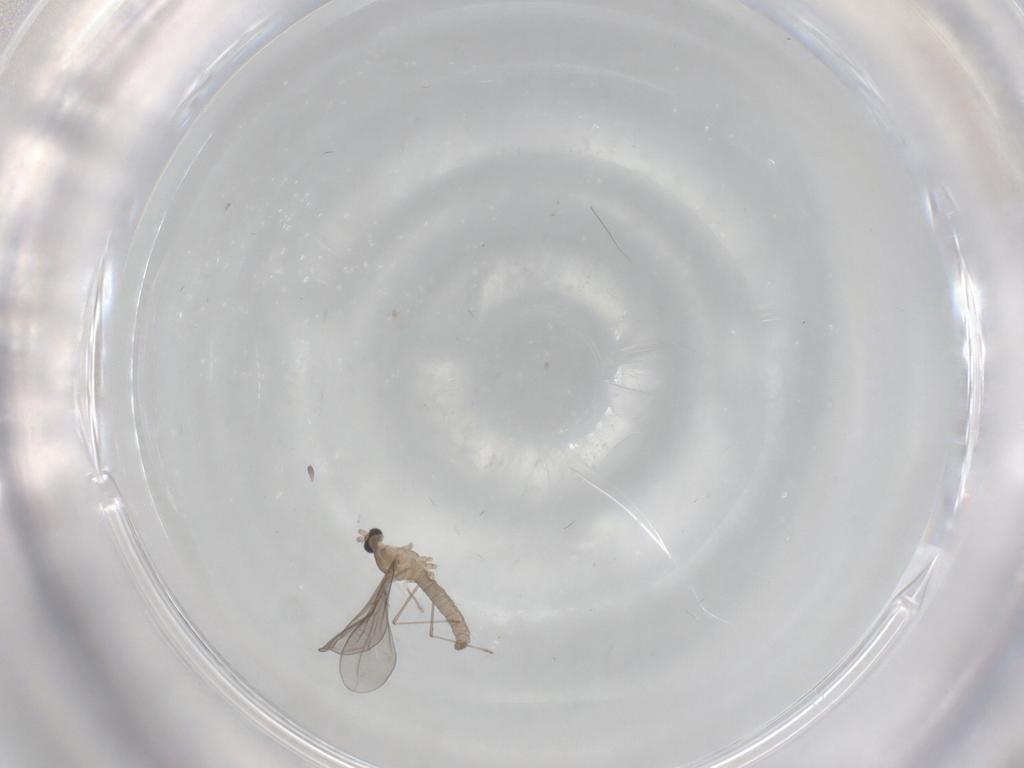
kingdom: Animalia
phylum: Arthropoda
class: Insecta
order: Diptera
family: Cecidomyiidae
